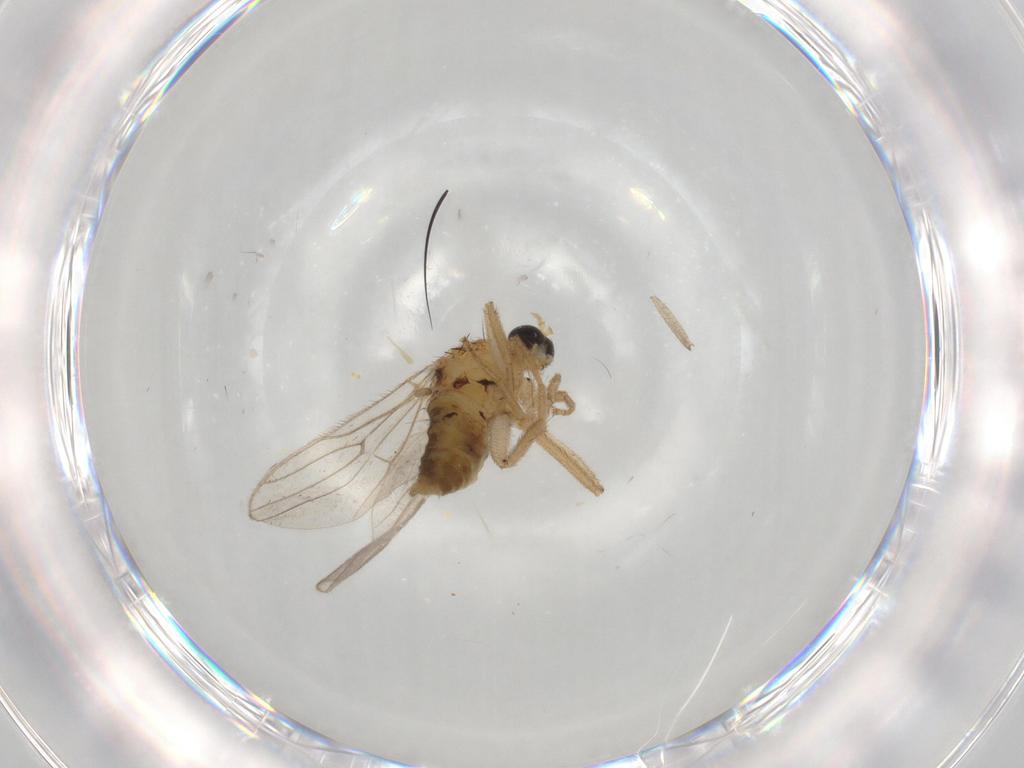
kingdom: Animalia
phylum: Arthropoda
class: Insecta
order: Diptera
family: Hybotidae
